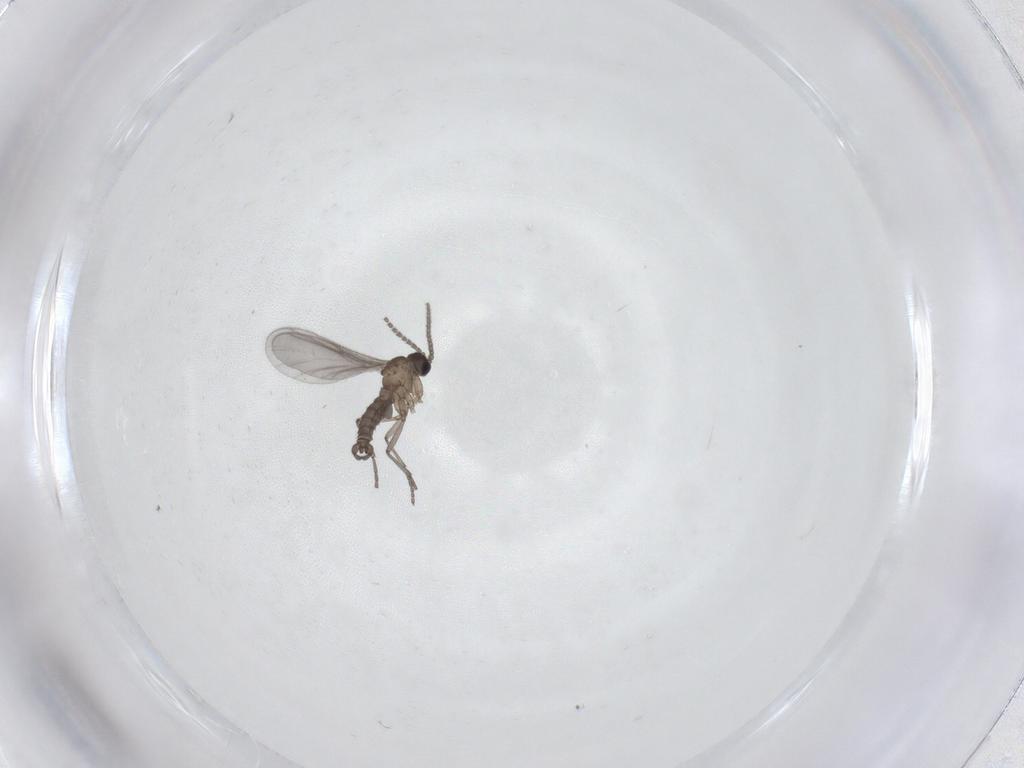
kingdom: Animalia
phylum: Arthropoda
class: Insecta
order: Diptera
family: Sciaridae
